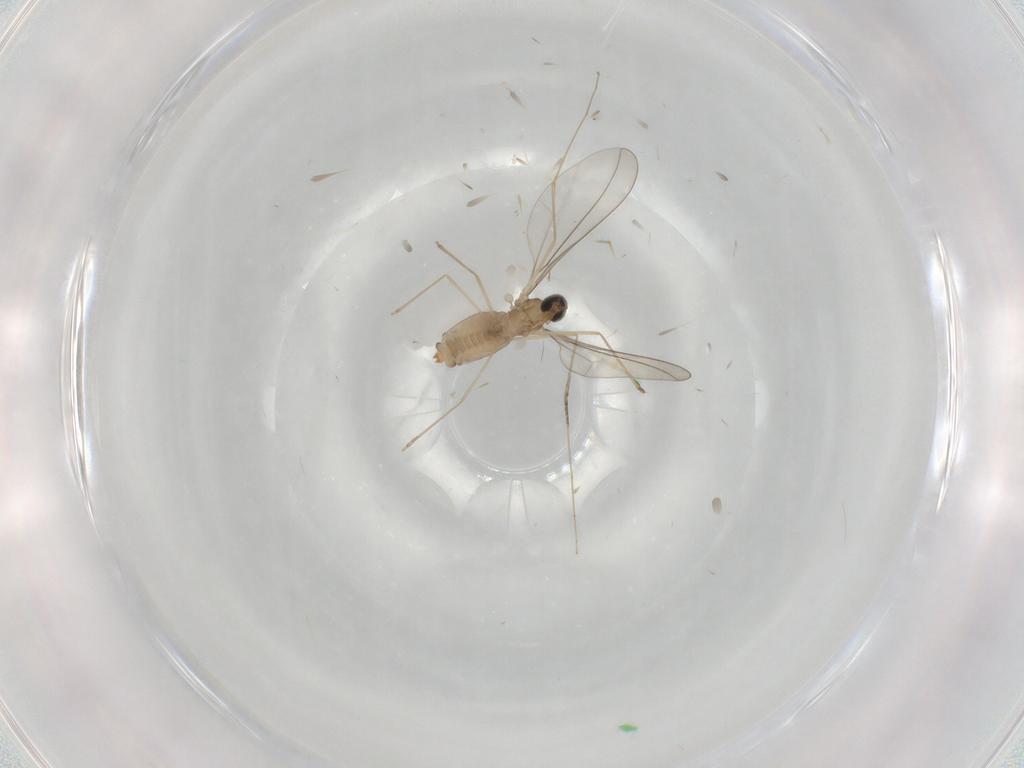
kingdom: Animalia
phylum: Arthropoda
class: Insecta
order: Diptera
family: Cecidomyiidae
